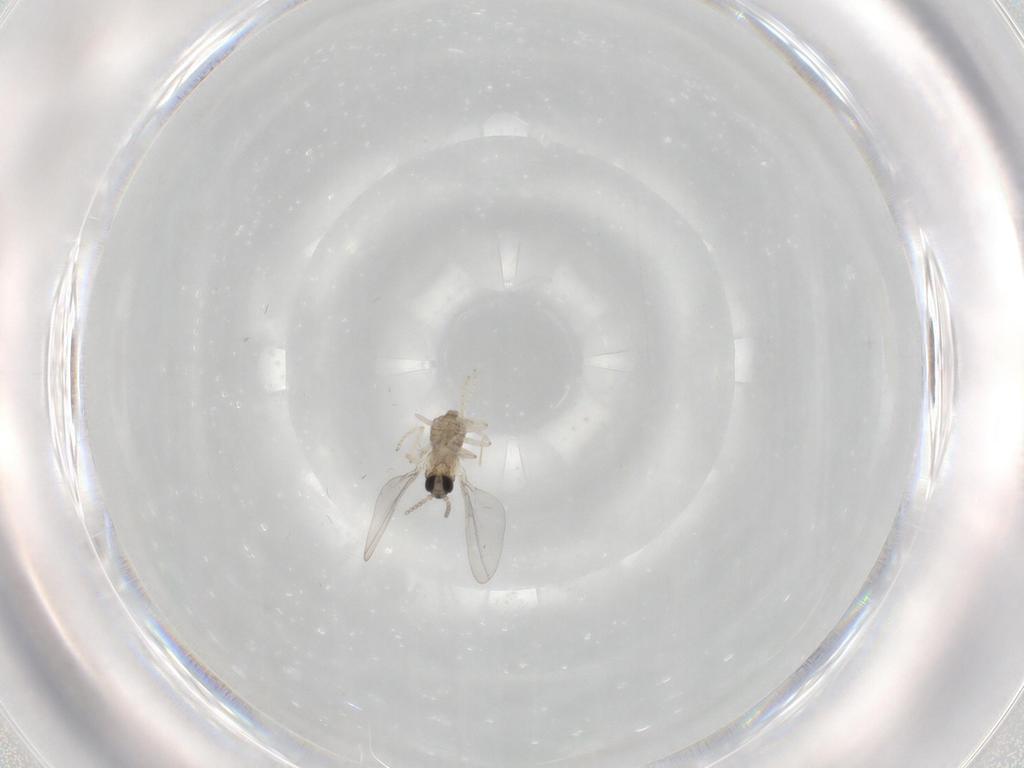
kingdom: Animalia
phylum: Arthropoda
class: Insecta
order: Diptera
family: Cecidomyiidae
